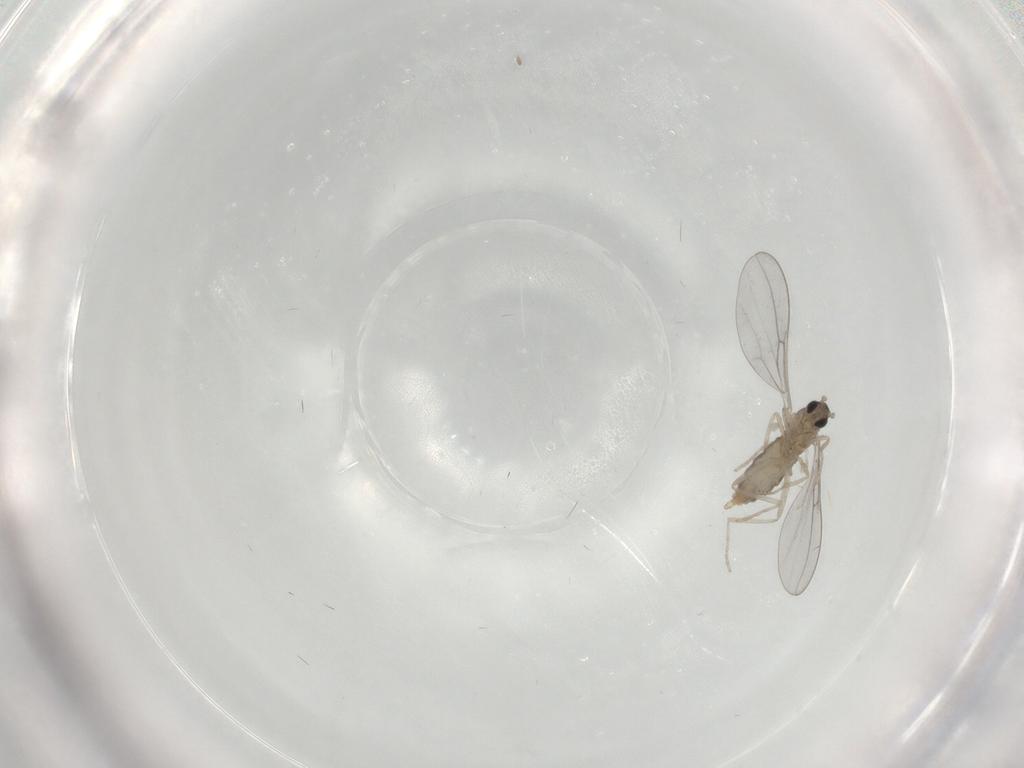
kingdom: Animalia
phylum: Arthropoda
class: Insecta
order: Diptera
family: Cecidomyiidae
